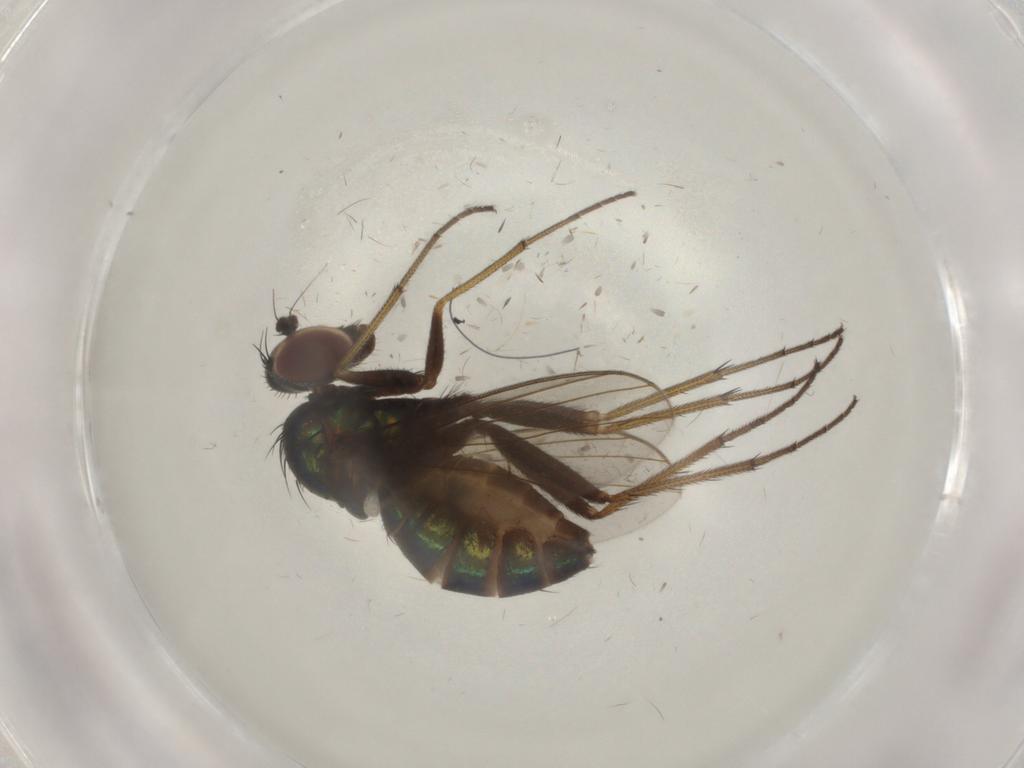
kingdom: Animalia
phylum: Arthropoda
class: Insecta
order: Diptera
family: Dolichopodidae
